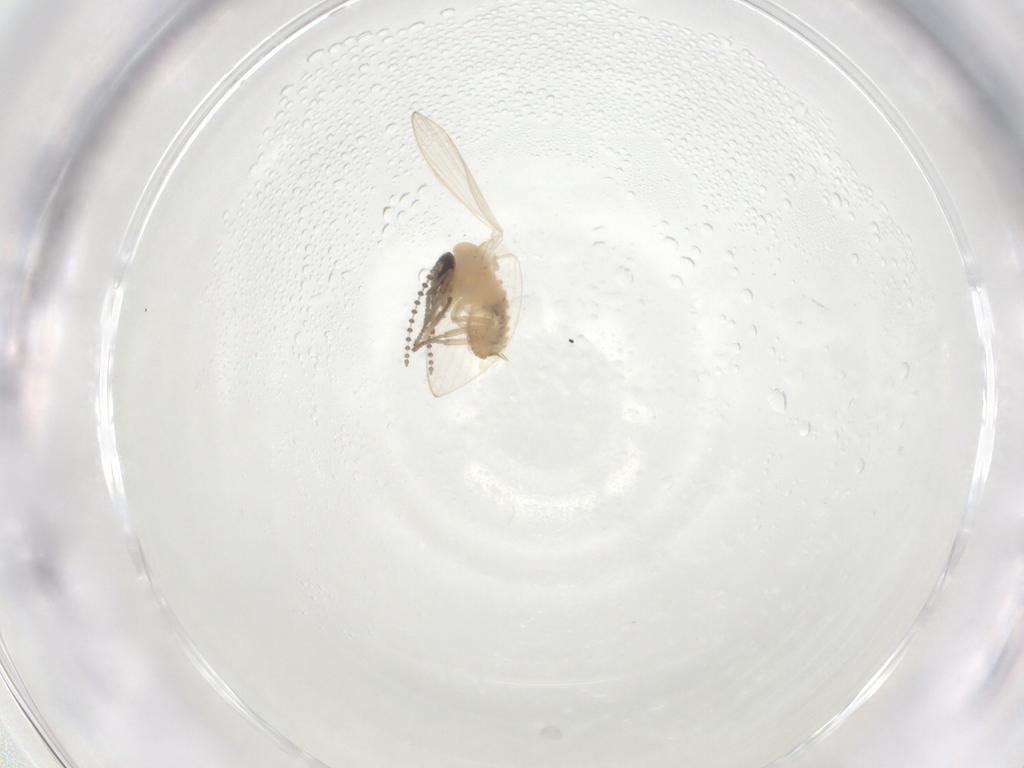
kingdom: Animalia
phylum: Arthropoda
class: Insecta
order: Diptera
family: Psychodidae
